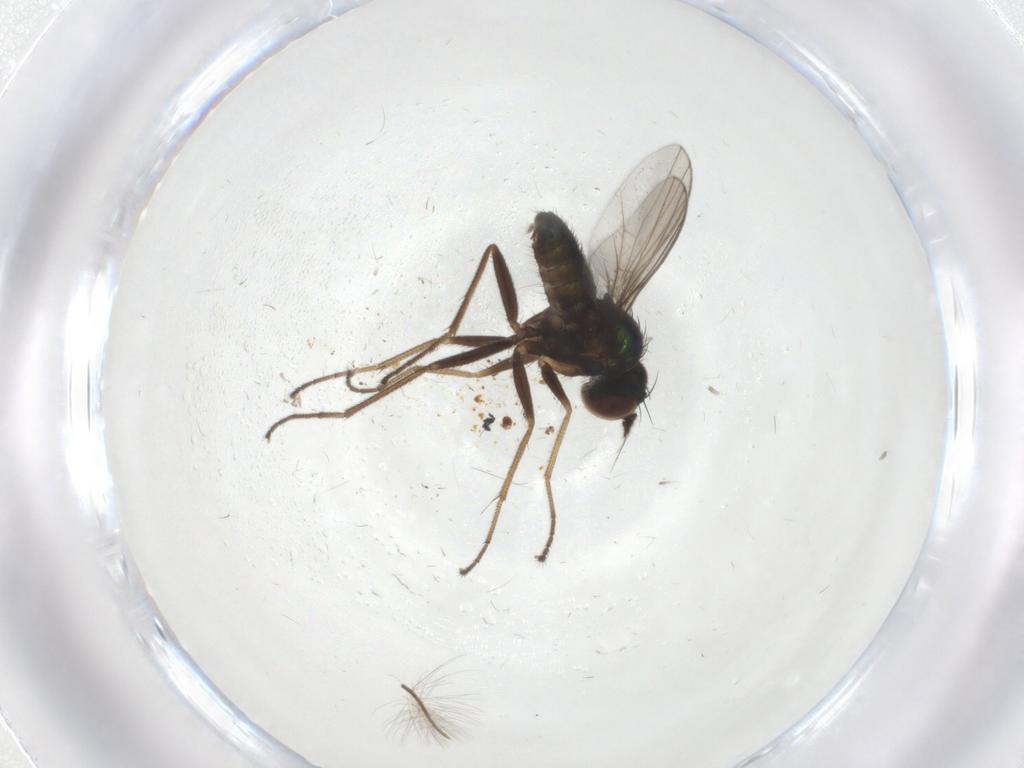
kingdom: Animalia
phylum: Arthropoda
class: Insecta
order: Diptera
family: Dolichopodidae
